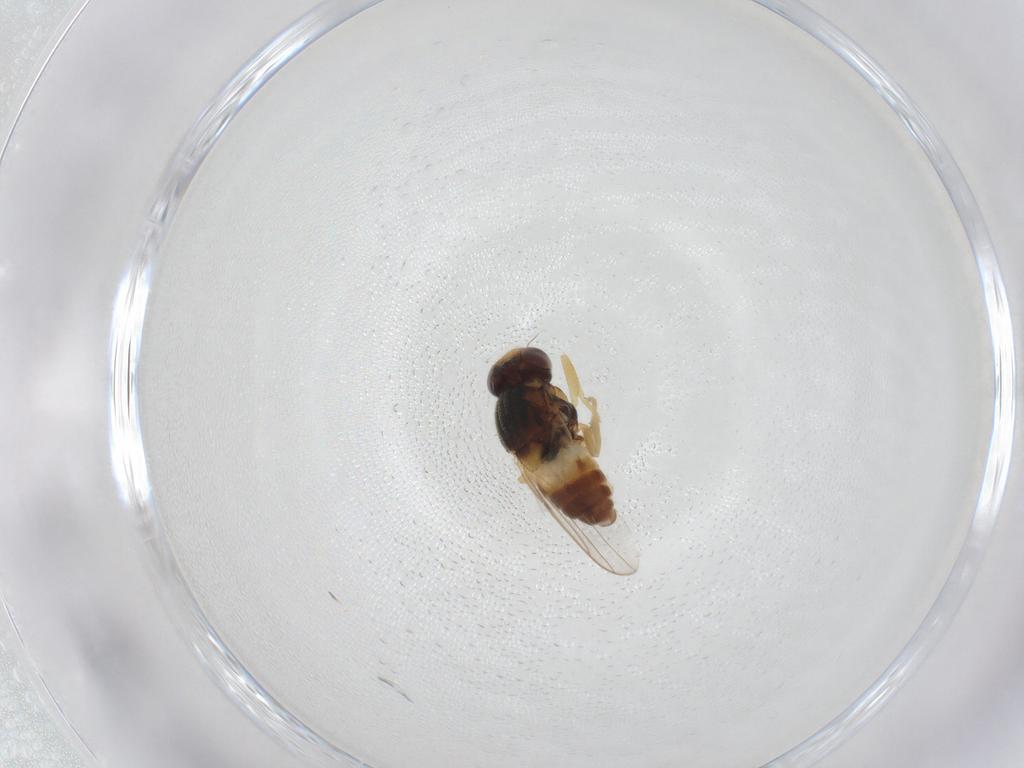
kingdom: Animalia
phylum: Arthropoda
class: Insecta
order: Diptera
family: Chloropidae
